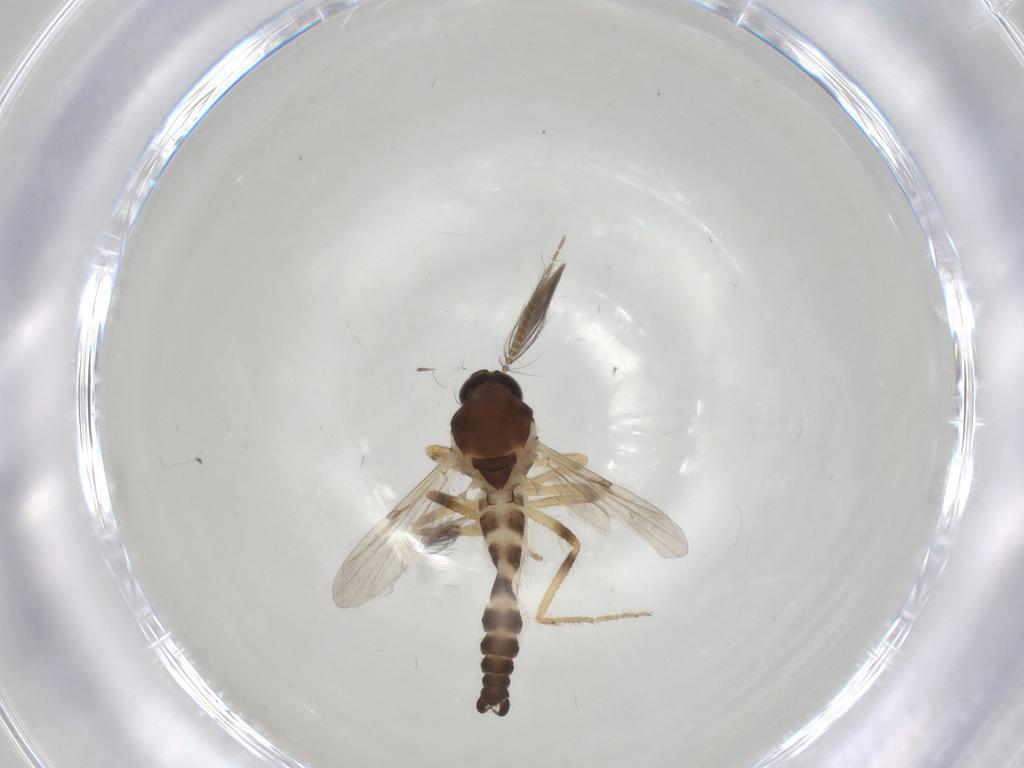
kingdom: Animalia
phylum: Arthropoda
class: Insecta
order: Diptera
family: Ceratopogonidae
